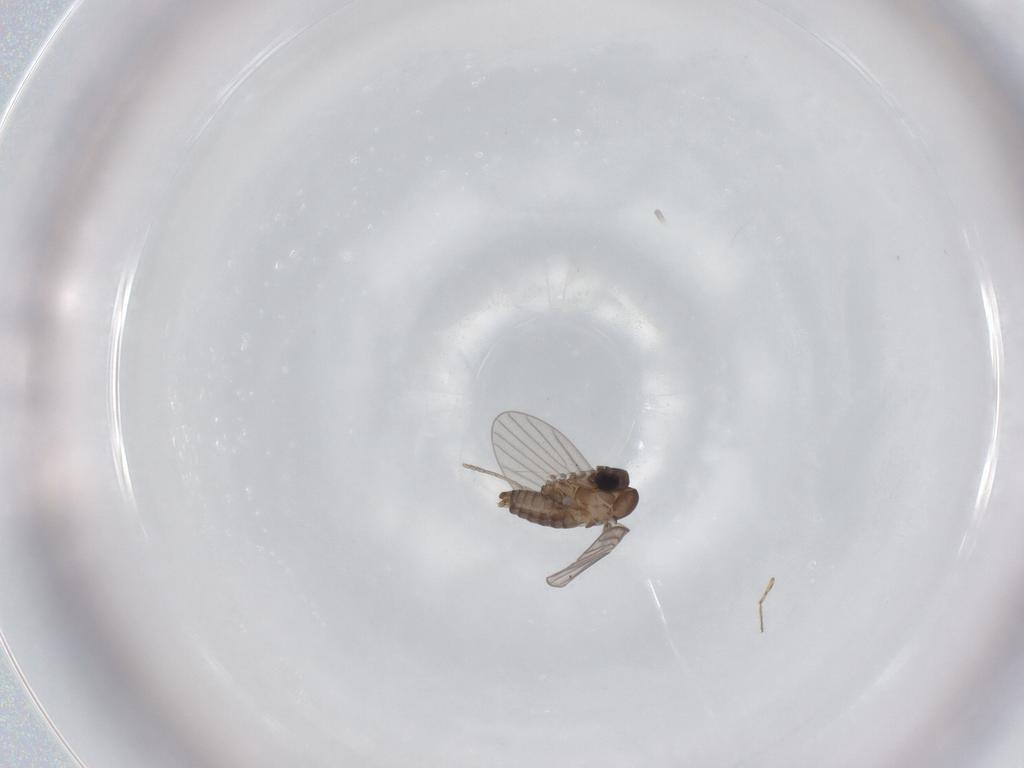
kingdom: Animalia
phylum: Arthropoda
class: Insecta
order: Diptera
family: Ceratopogonidae
